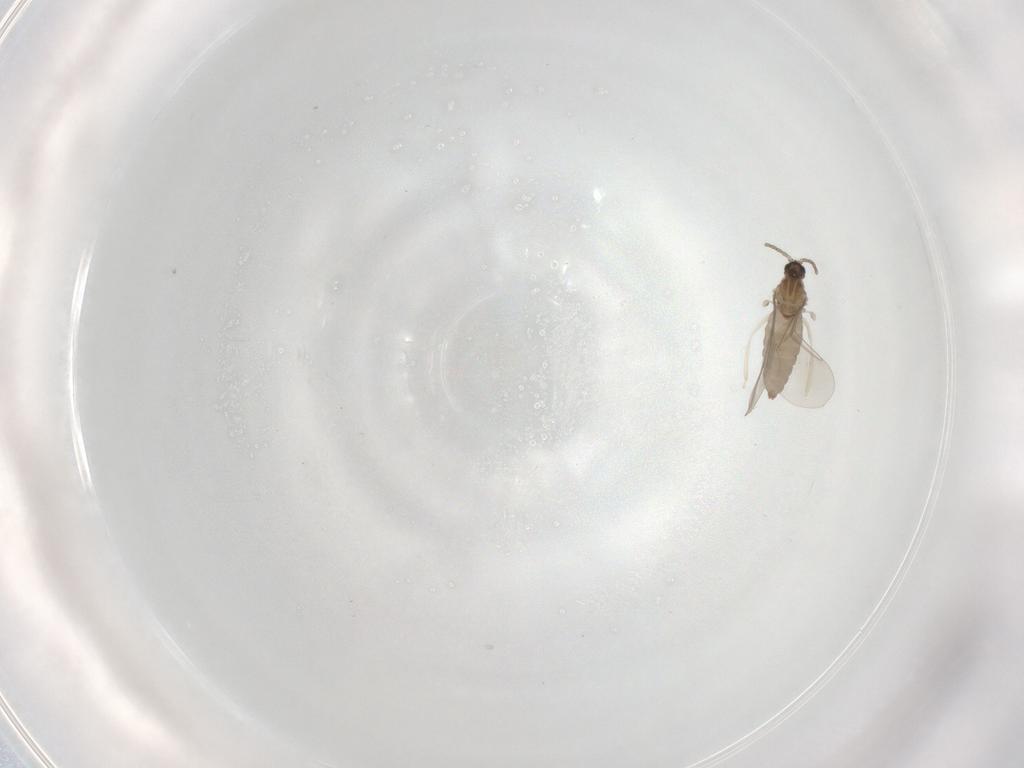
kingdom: Animalia
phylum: Arthropoda
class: Insecta
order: Diptera
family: Cecidomyiidae
